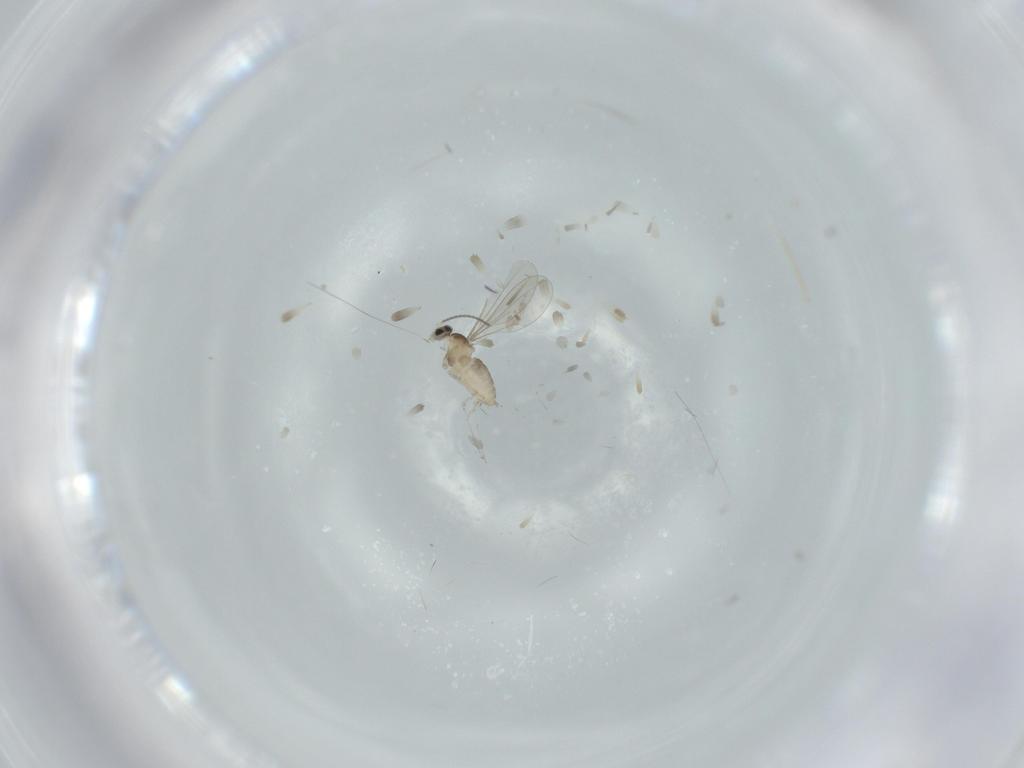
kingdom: Animalia
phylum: Arthropoda
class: Insecta
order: Diptera
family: Cecidomyiidae
